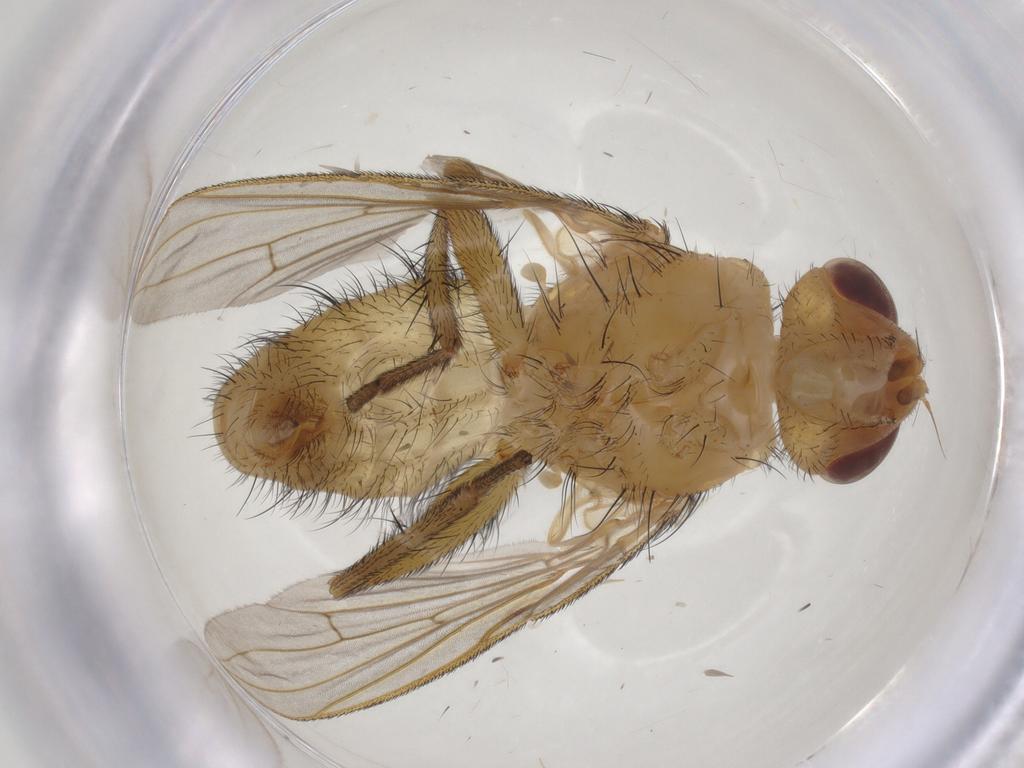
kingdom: Animalia
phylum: Arthropoda
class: Insecta
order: Diptera
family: Tachinidae
